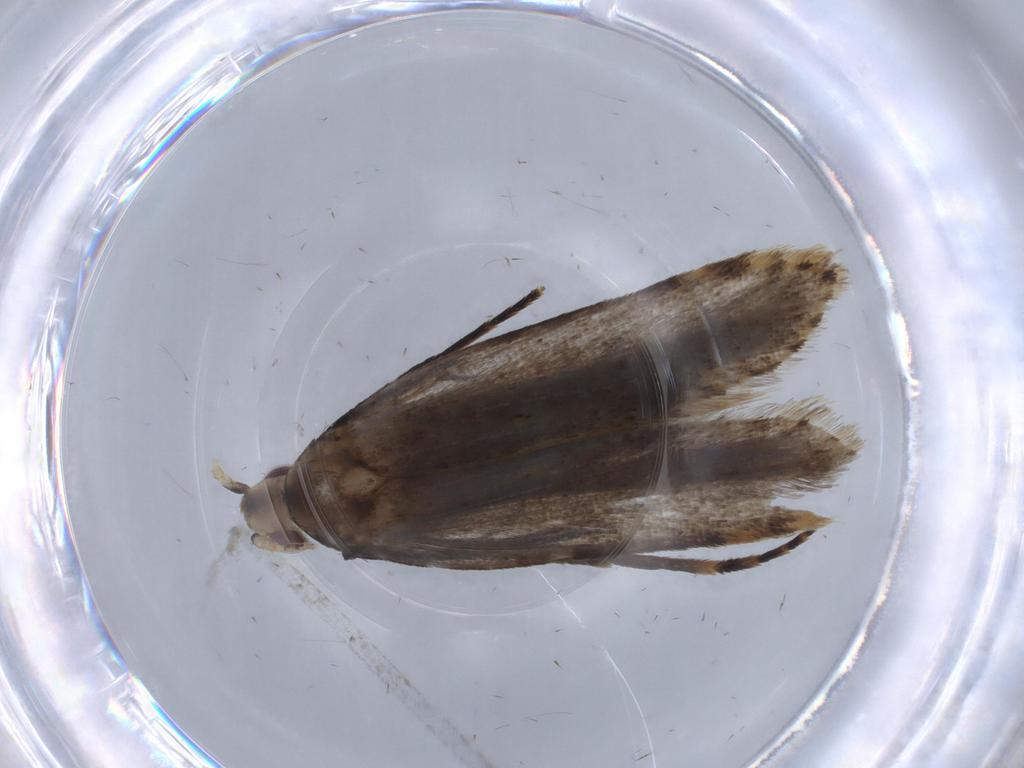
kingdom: Animalia
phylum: Arthropoda
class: Insecta
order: Lepidoptera
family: Gelechiidae
